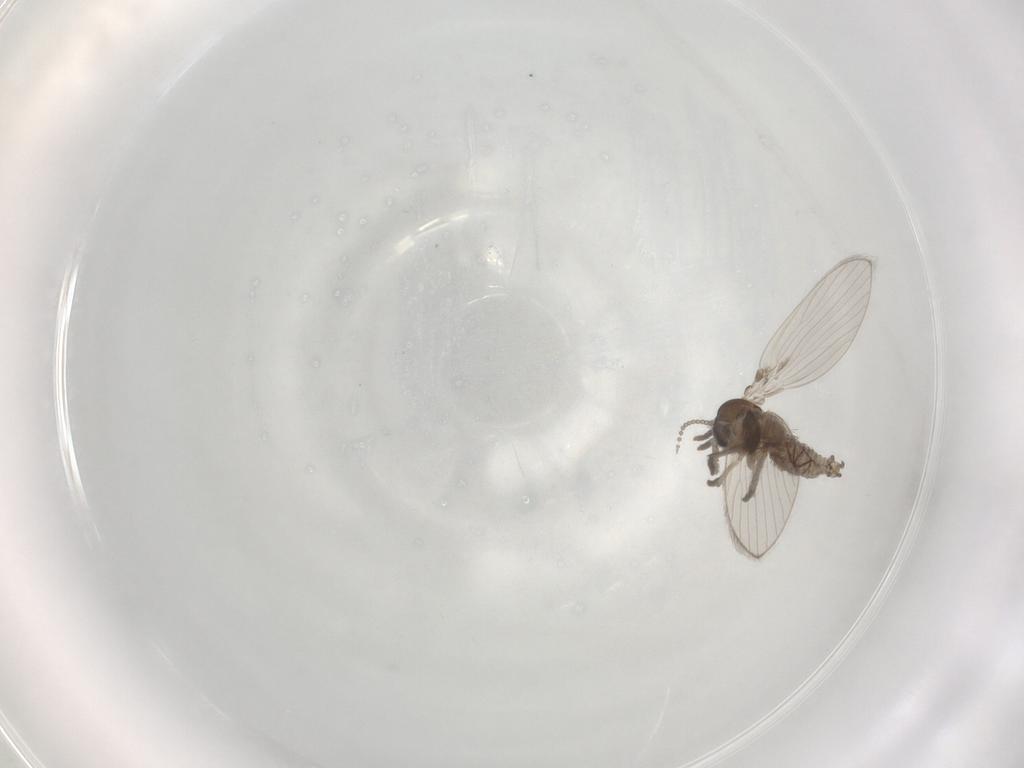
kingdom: Animalia
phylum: Arthropoda
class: Insecta
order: Diptera
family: Psychodidae
